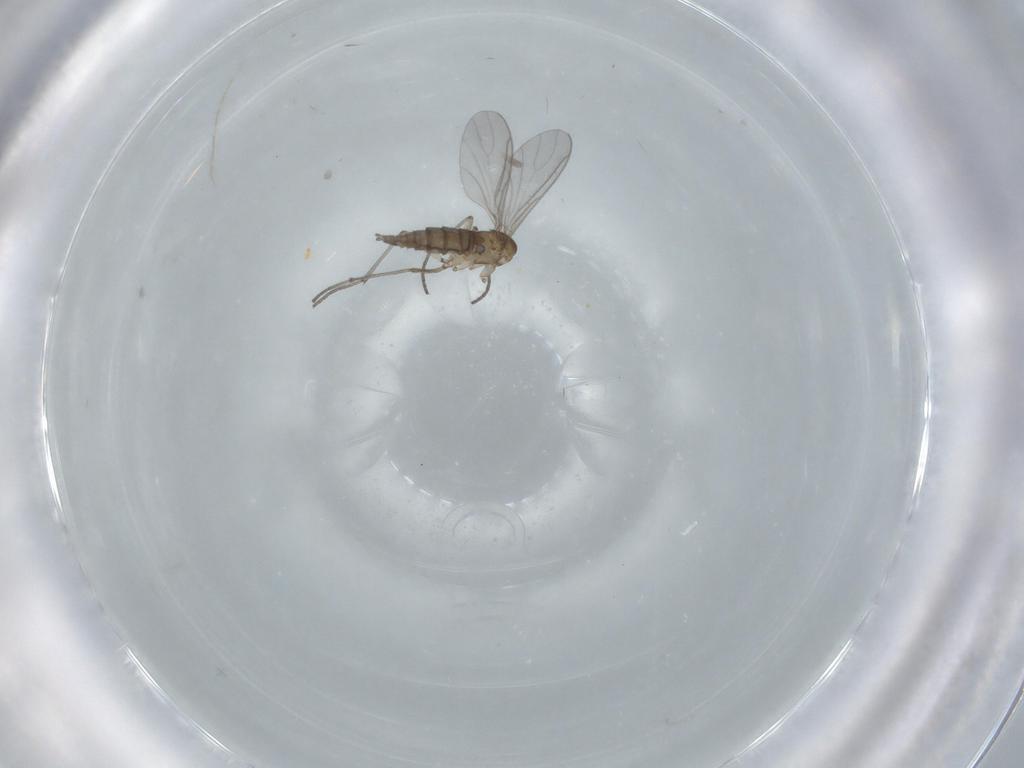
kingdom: Animalia
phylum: Arthropoda
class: Insecta
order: Diptera
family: Sciaridae
